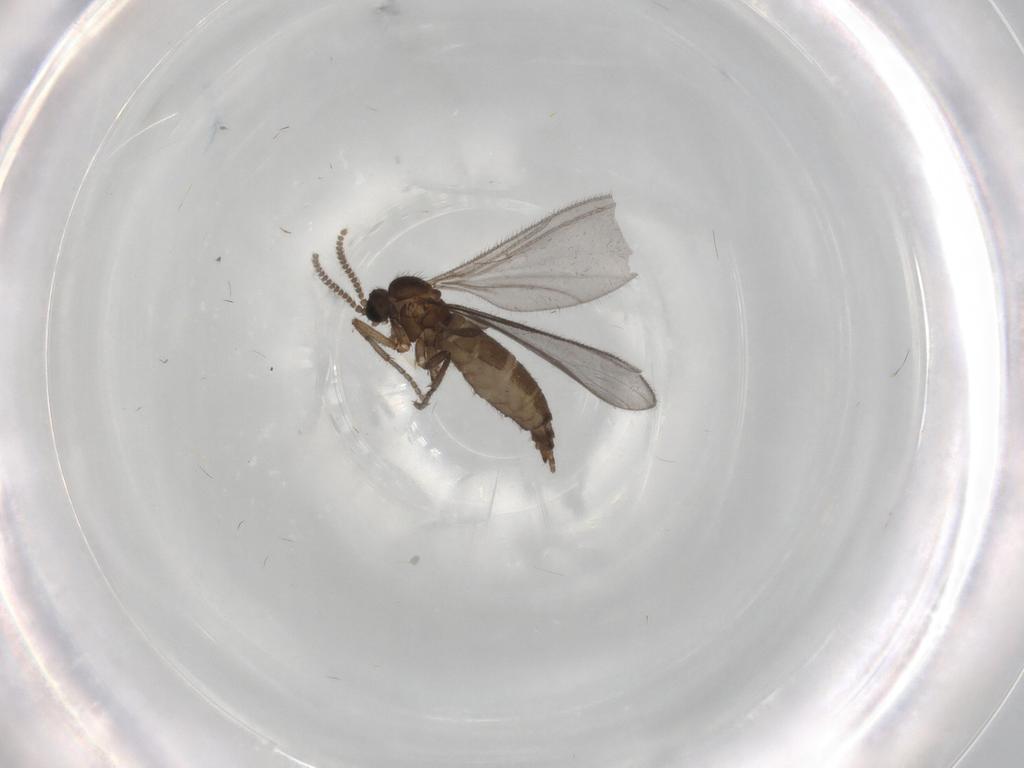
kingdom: Animalia
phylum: Arthropoda
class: Insecta
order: Diptera
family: Sciaridae
